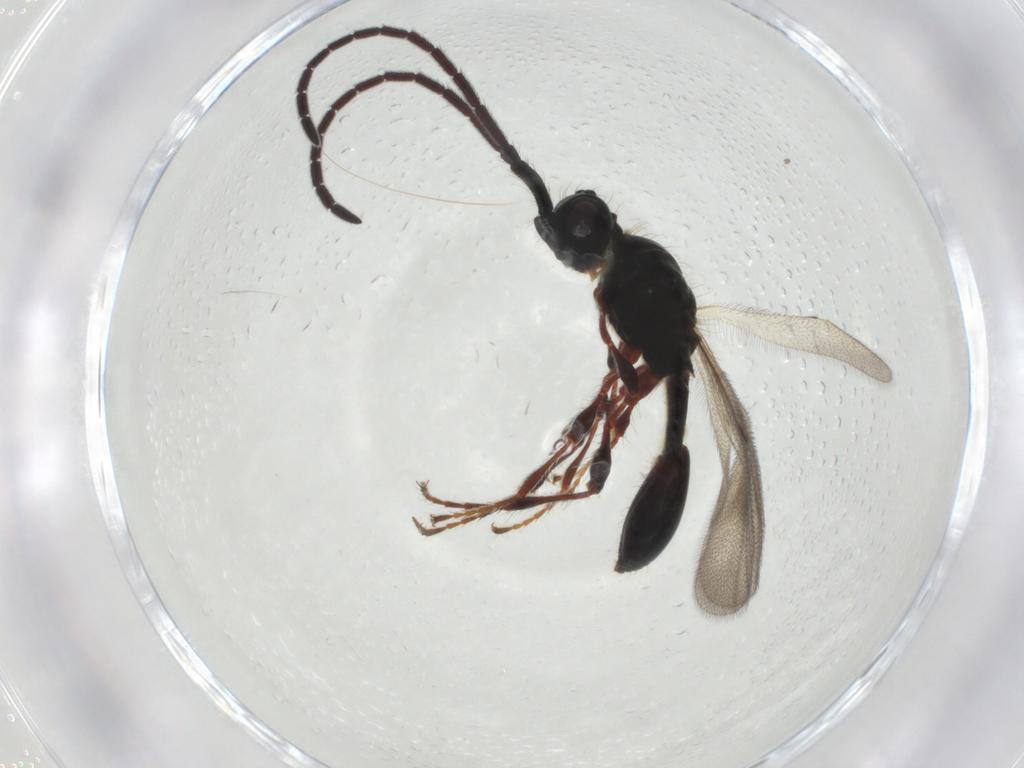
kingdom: Animalia
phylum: Arthropoda
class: Insecta
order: Hymenoptera
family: Diapriidae
